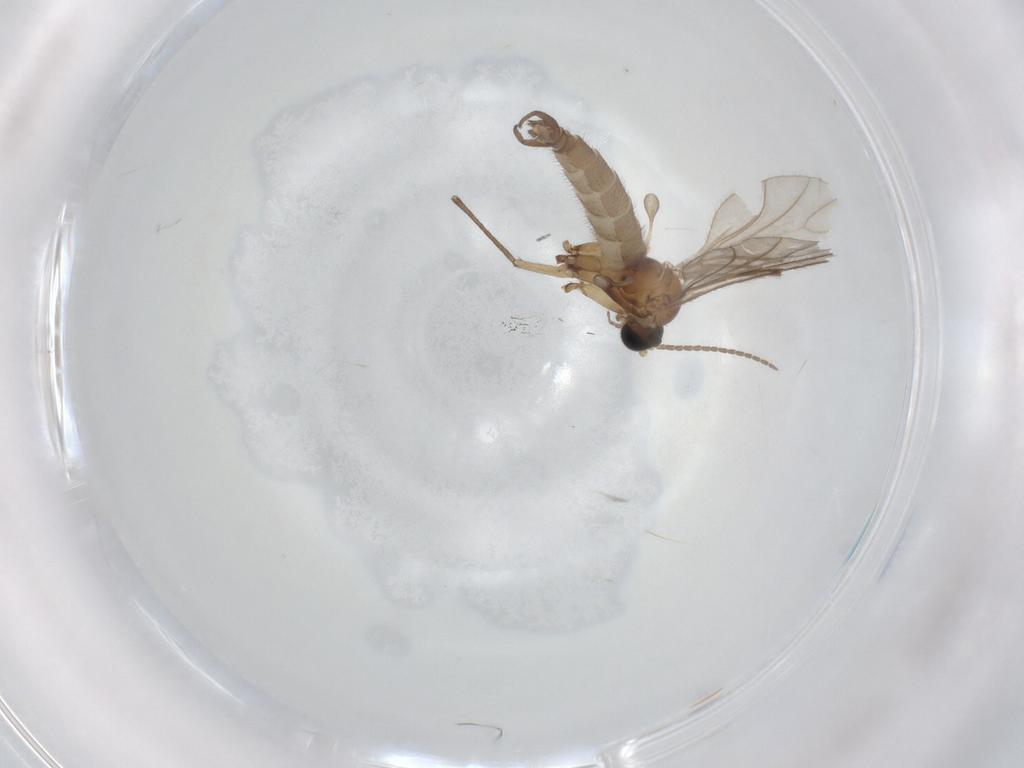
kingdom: Animalia
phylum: Arthropoda
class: Insecta
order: Diptera
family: Sciaridae
